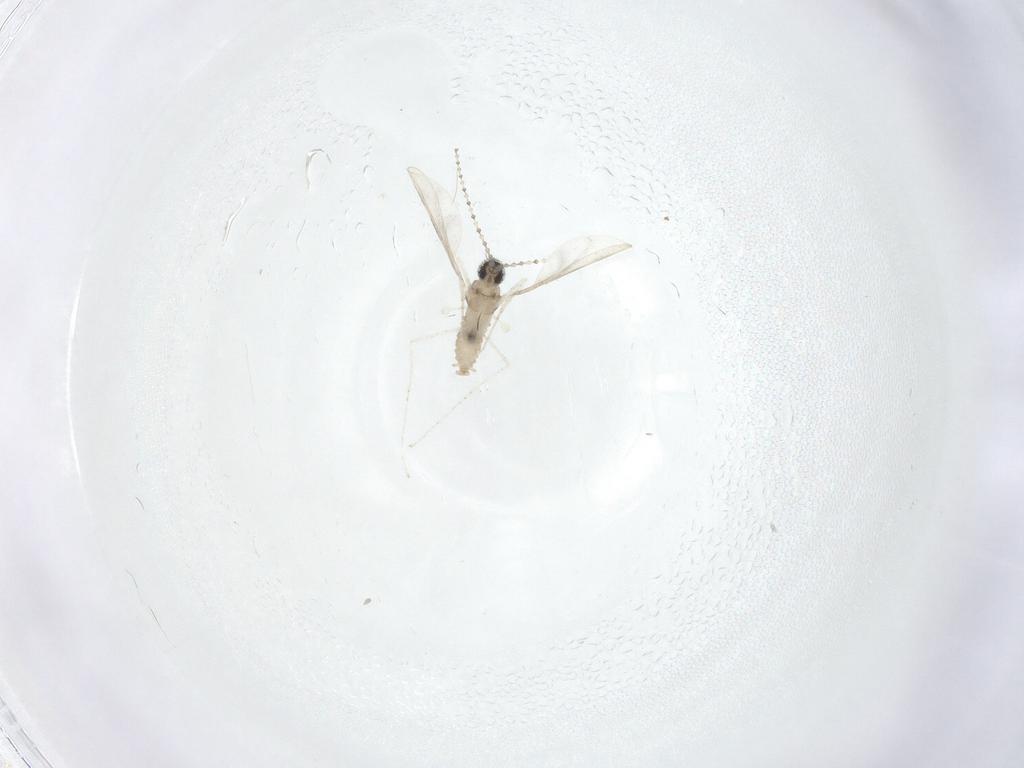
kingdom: Animalia
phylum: Arthropoda
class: Insecta
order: Diptera
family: Cecidomyiidae
